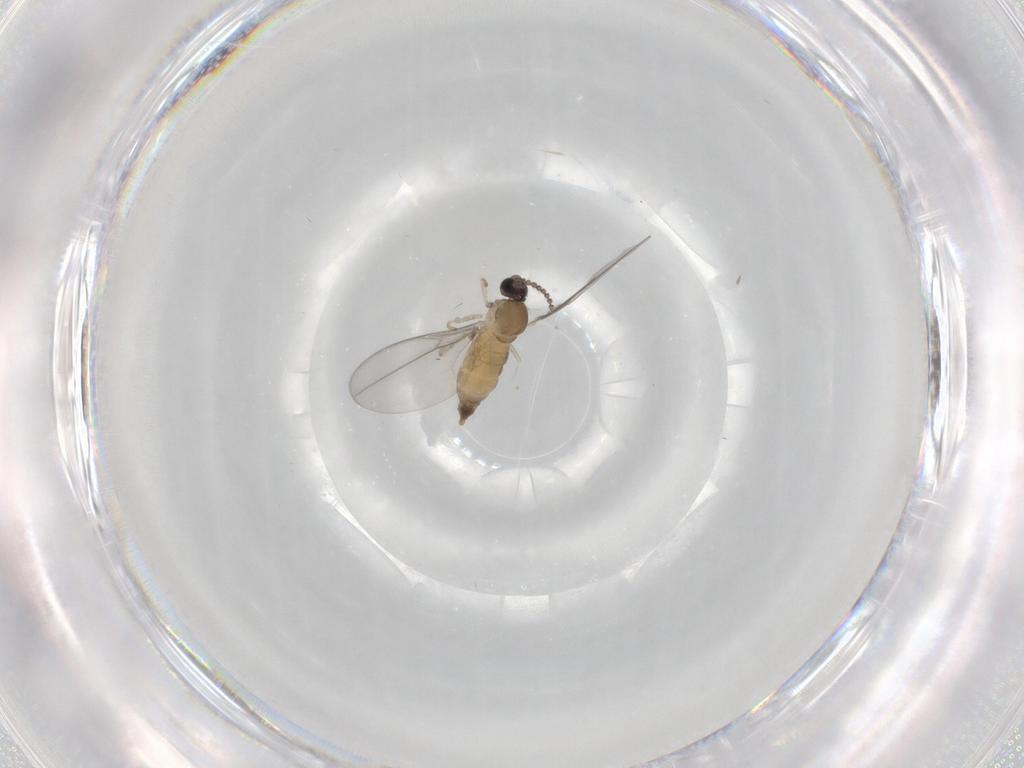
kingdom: Animalia
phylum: Arthropoda
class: Insecta
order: Diptera
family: Cecidomyiidae
